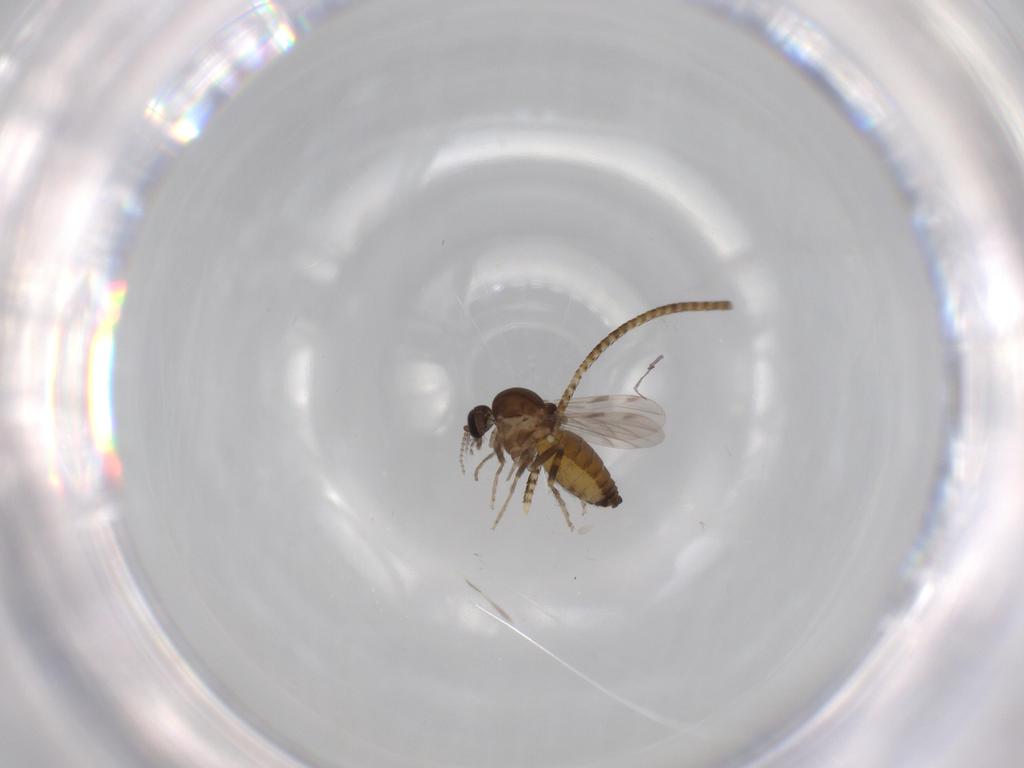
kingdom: Animalia
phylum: Arthropoda
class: Insecta
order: Diptera
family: Ceratopogonidae
